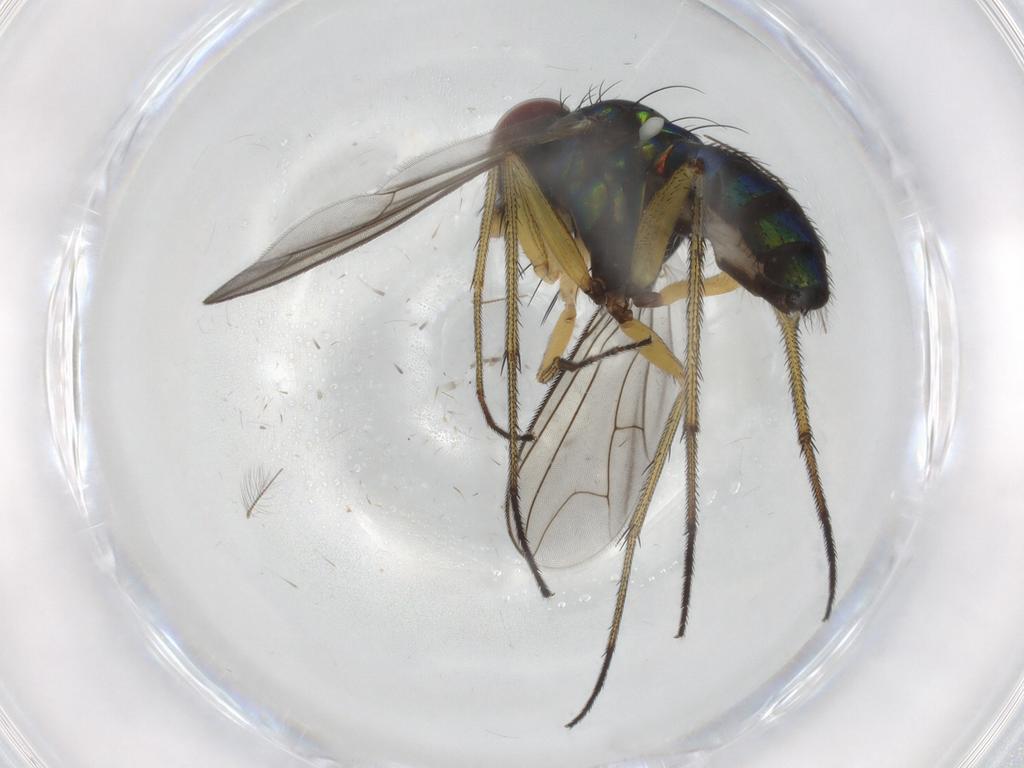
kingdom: Animalia
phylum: Arthropoda
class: Insecta
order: Diptera
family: Dolichopodidae
